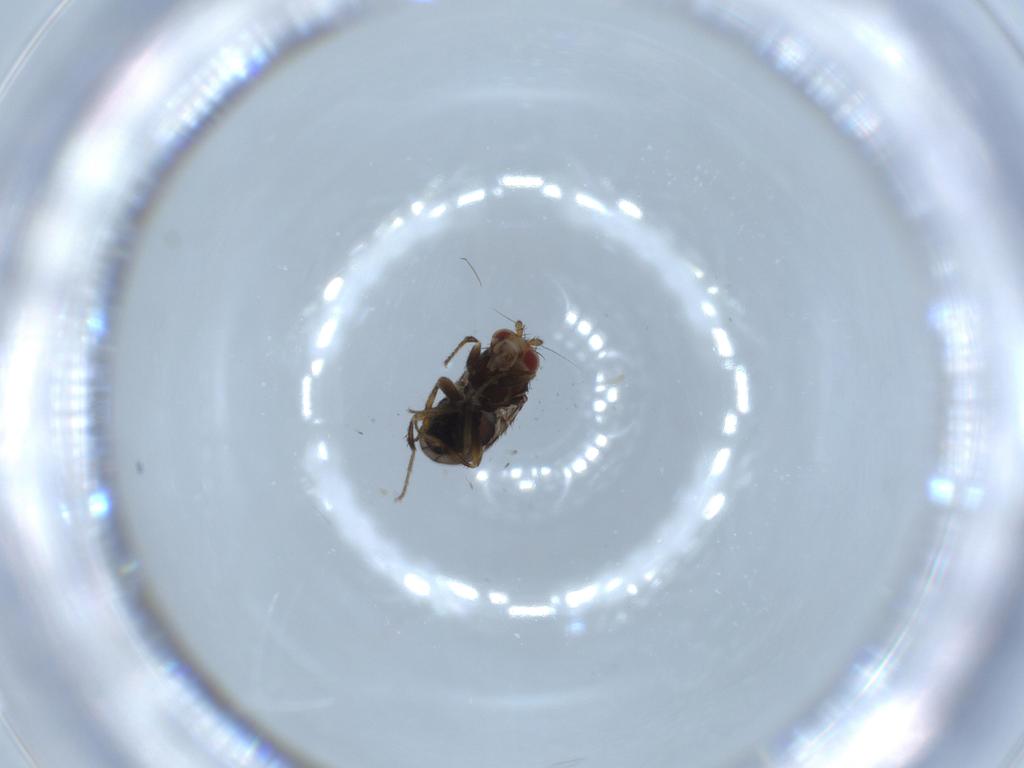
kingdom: Animalia
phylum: Arthropoda
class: Insecta
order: Diptera
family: Sphaeroceridae
